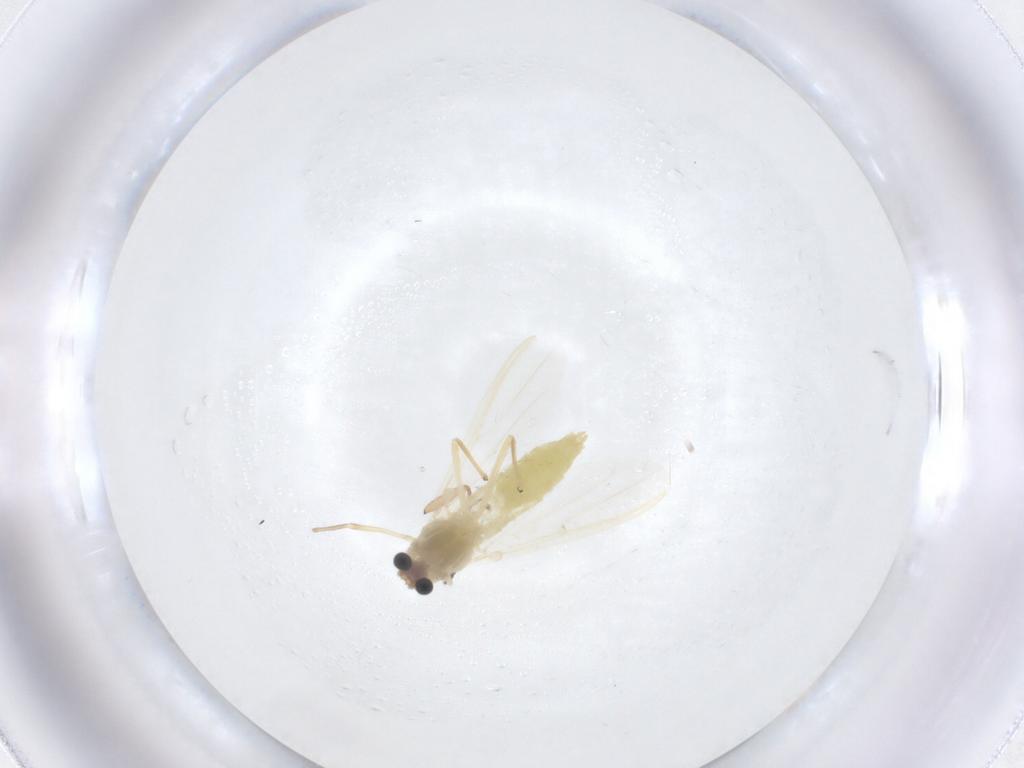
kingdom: Animalia
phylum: Arthropoda
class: Insecta
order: Diptera
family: Chironomidae
